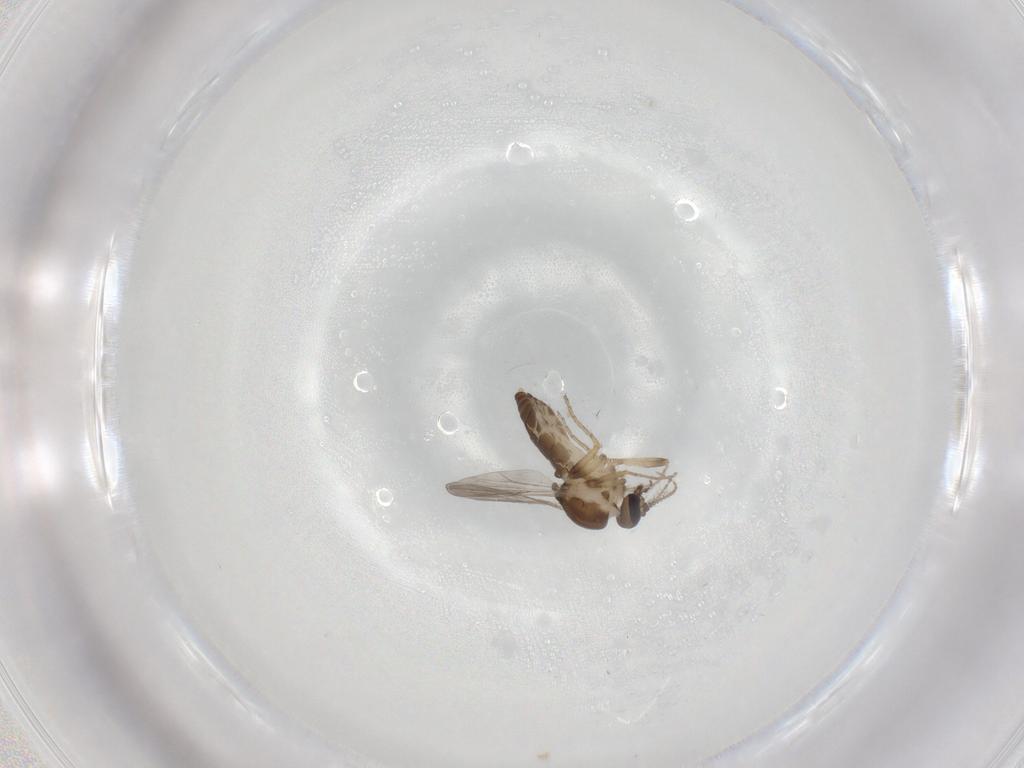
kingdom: Animalia
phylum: Arthropoda
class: Insecta
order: Diptera
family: Ceratopogonidae
